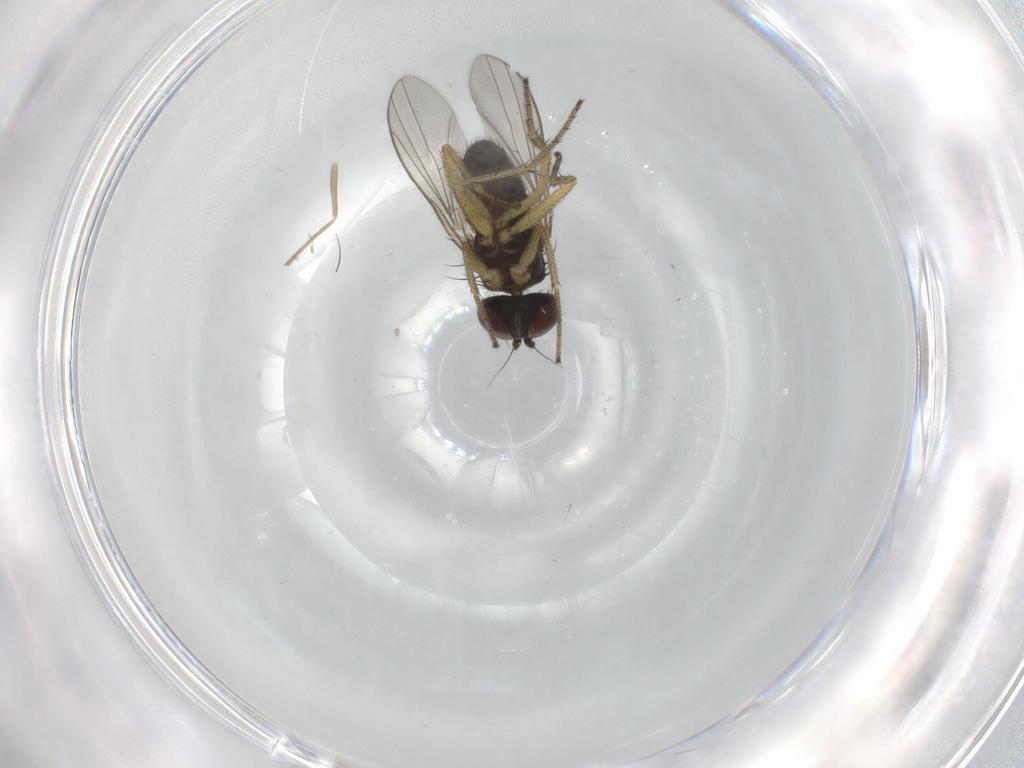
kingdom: Animalia
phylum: Arthropoda
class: Insecta
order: Diptera
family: Chironomidae
